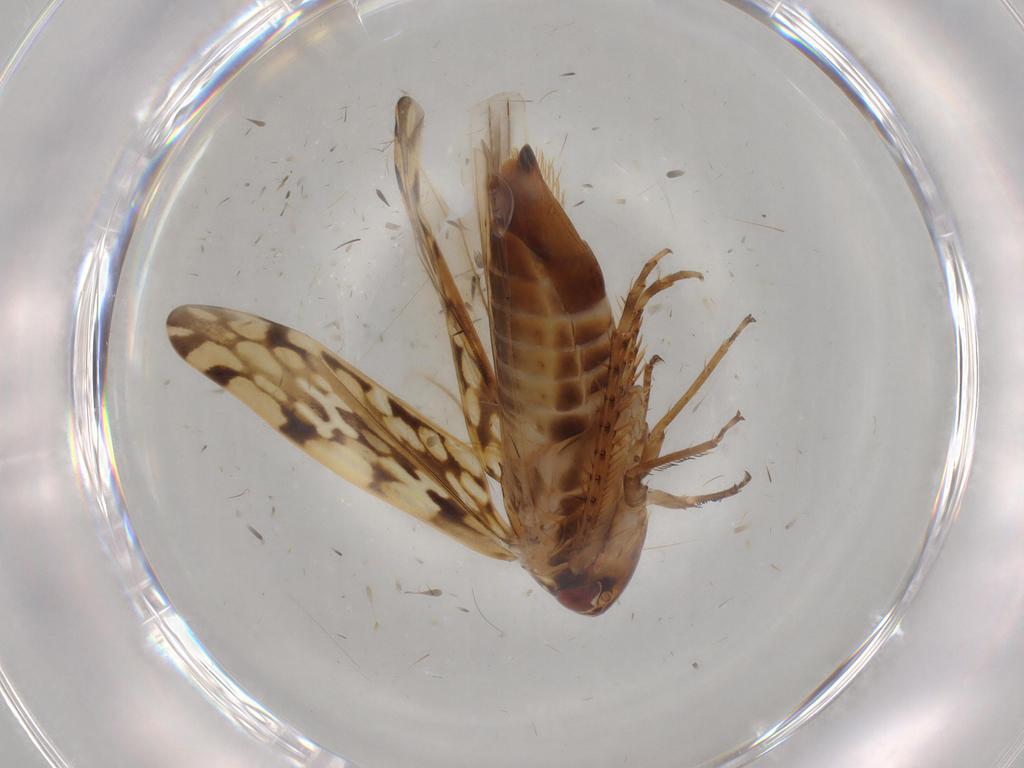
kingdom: Animalia
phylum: Arthropoda
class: Insecta
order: Hemiptera
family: Cicadellidae
